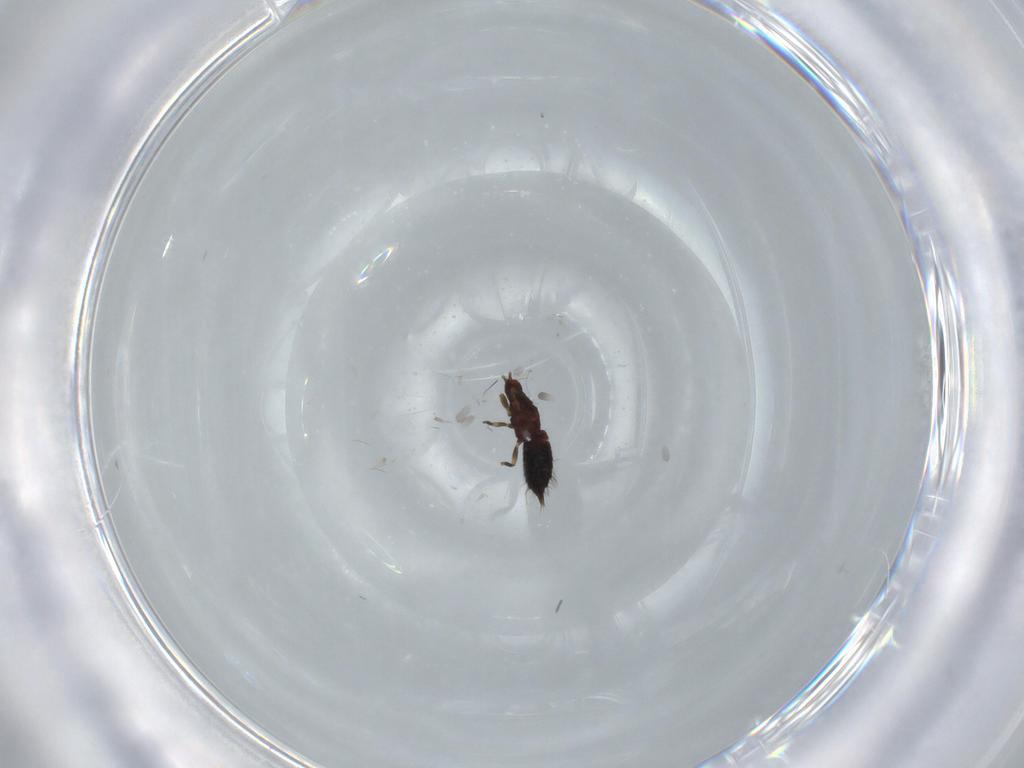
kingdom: Animalia
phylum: Arthropoda
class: Insecta
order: Thysanoptera
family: Phlaeothripidae
